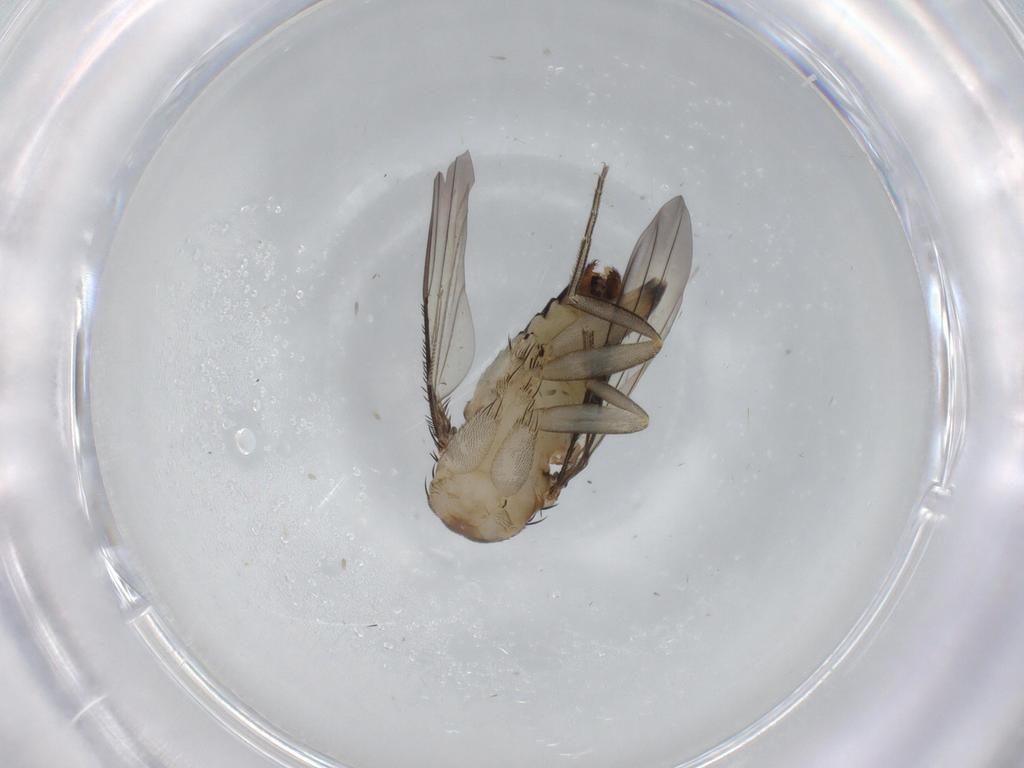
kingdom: Animalia
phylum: Arthropoda
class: Insecta
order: Diptera
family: Phoridae
